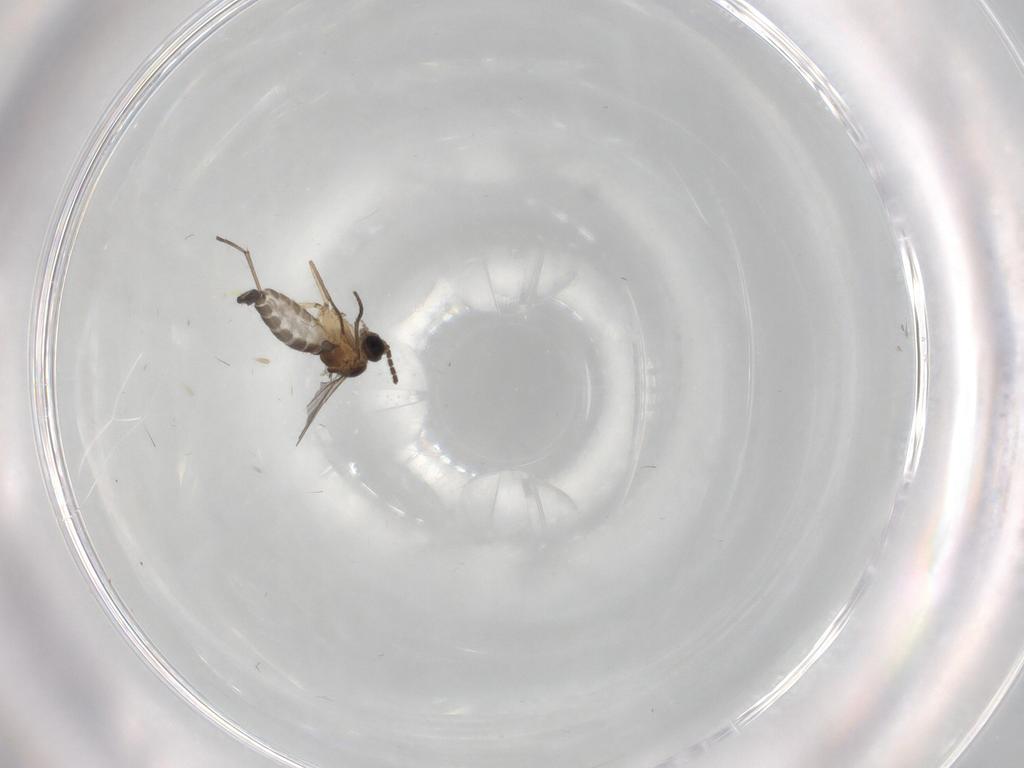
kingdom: Animalia
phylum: Arthropoda
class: Insecta
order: Diptera
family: Sciaridae
